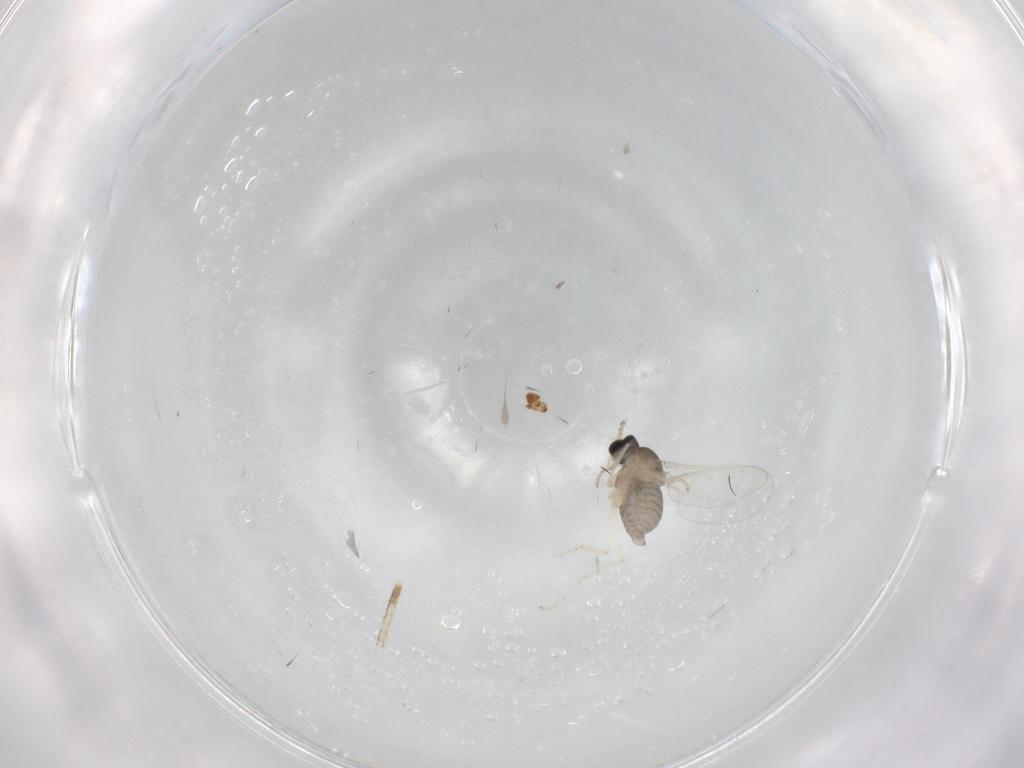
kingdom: Animalia
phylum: Arthropoda
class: Insecta
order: Diptera
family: Cecidomyiidae
